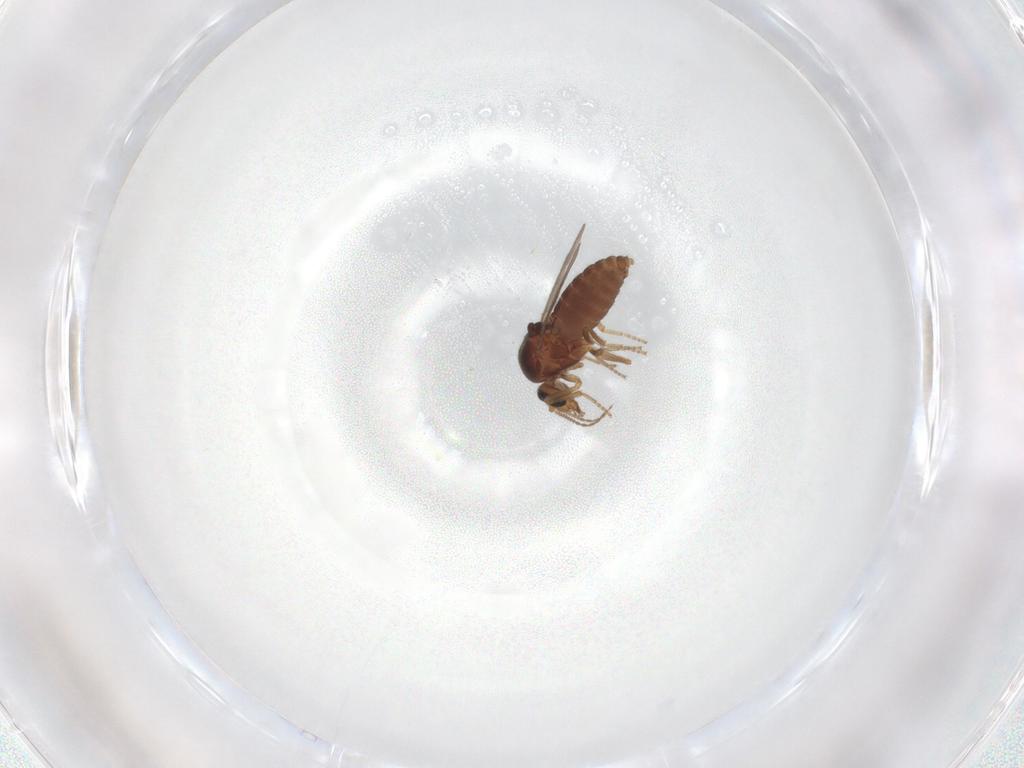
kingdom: Animalia
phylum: Arthropoda
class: Insecta
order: Diptera
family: Ceratopogonidae
